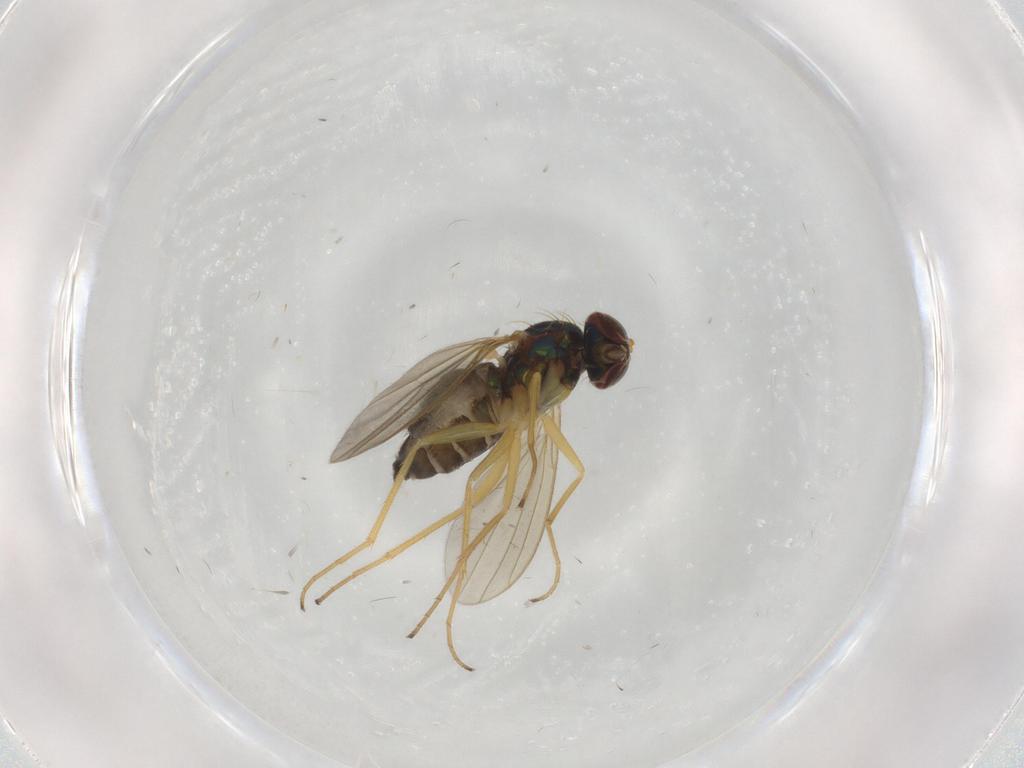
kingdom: Animalia
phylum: Arthropoda
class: Insecta
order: Diptera
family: Dolichopodidae
